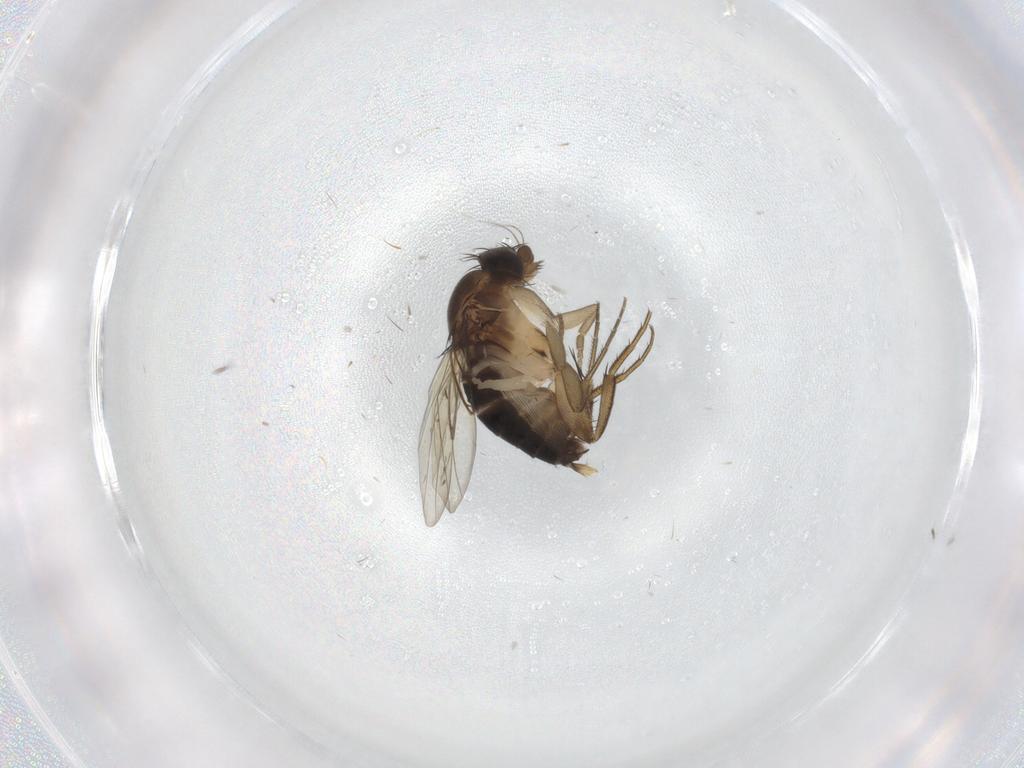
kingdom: Animalia
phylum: Arthropoda
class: Insecta
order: Diptera
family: Phoridae
